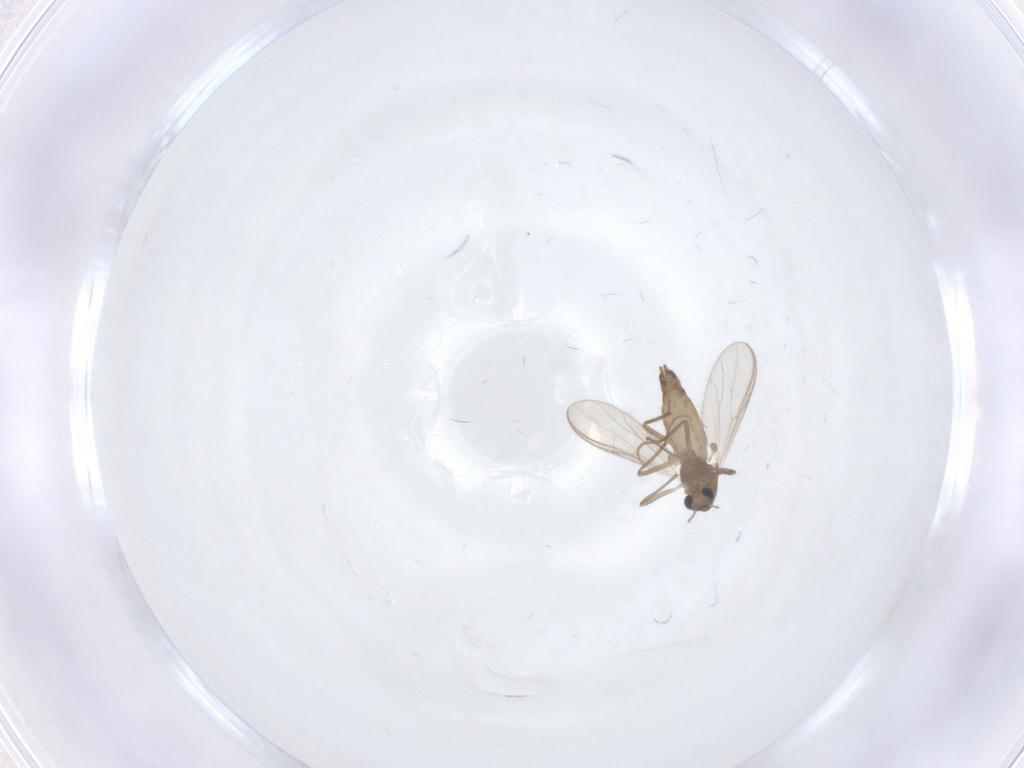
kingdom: Animalia
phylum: Arthropoda
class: Insecta
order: Diptera
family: Chironomidae
